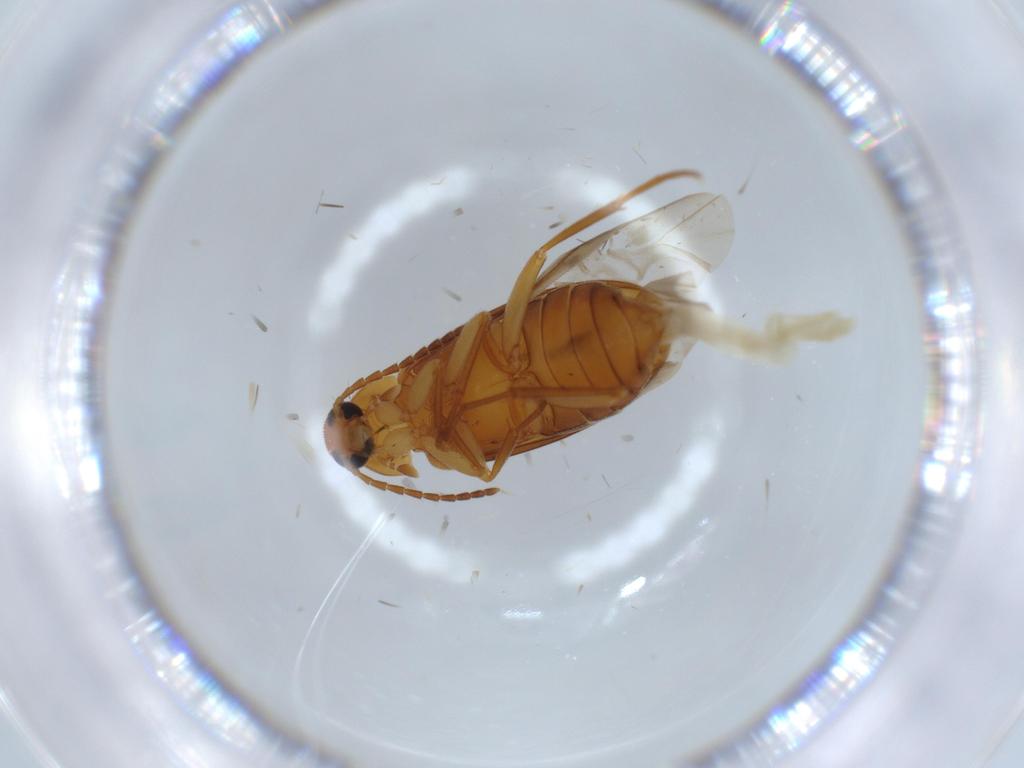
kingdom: Animalia
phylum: Arthropoda
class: Insecta
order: Coleoptera
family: Scraptiidae
